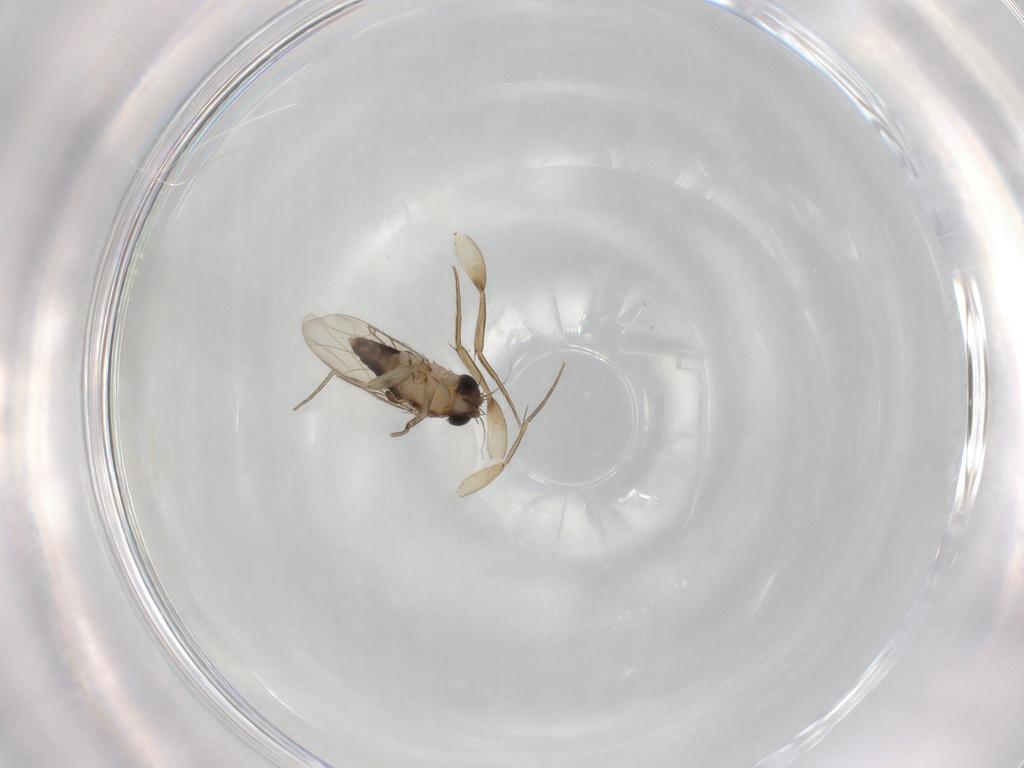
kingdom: Animalia
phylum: Arthropoda
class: Insecta
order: Diptera
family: Phoridae
